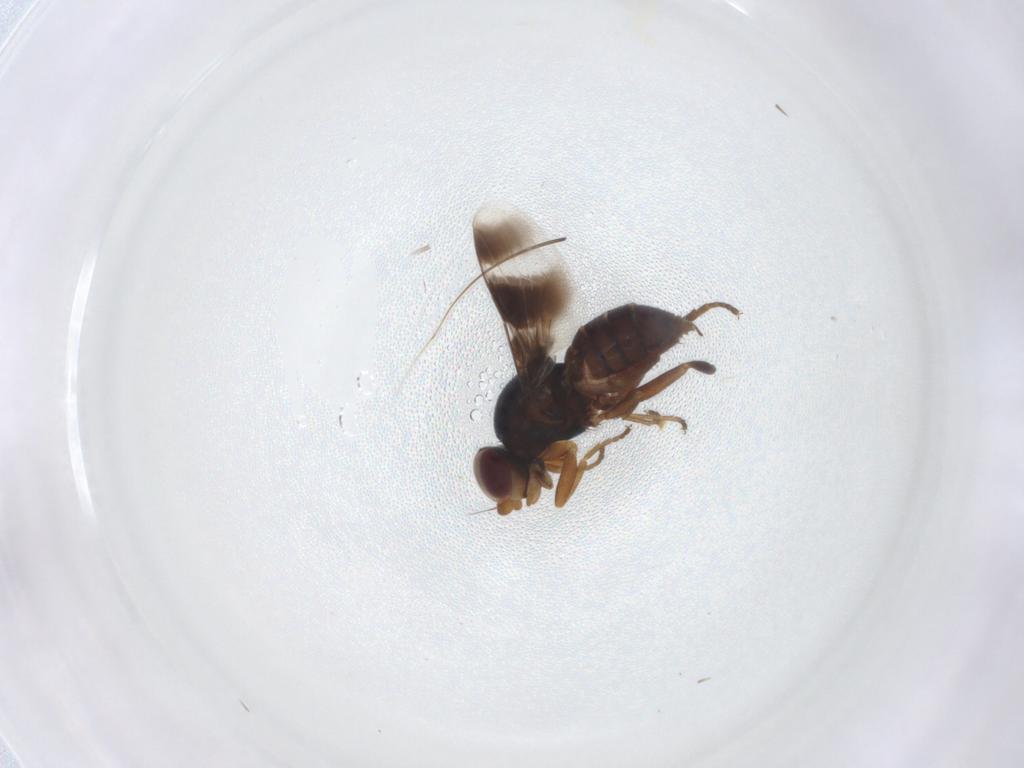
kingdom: Animalia
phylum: Arthropoda
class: Insecta
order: Diptera
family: Chloropidae
